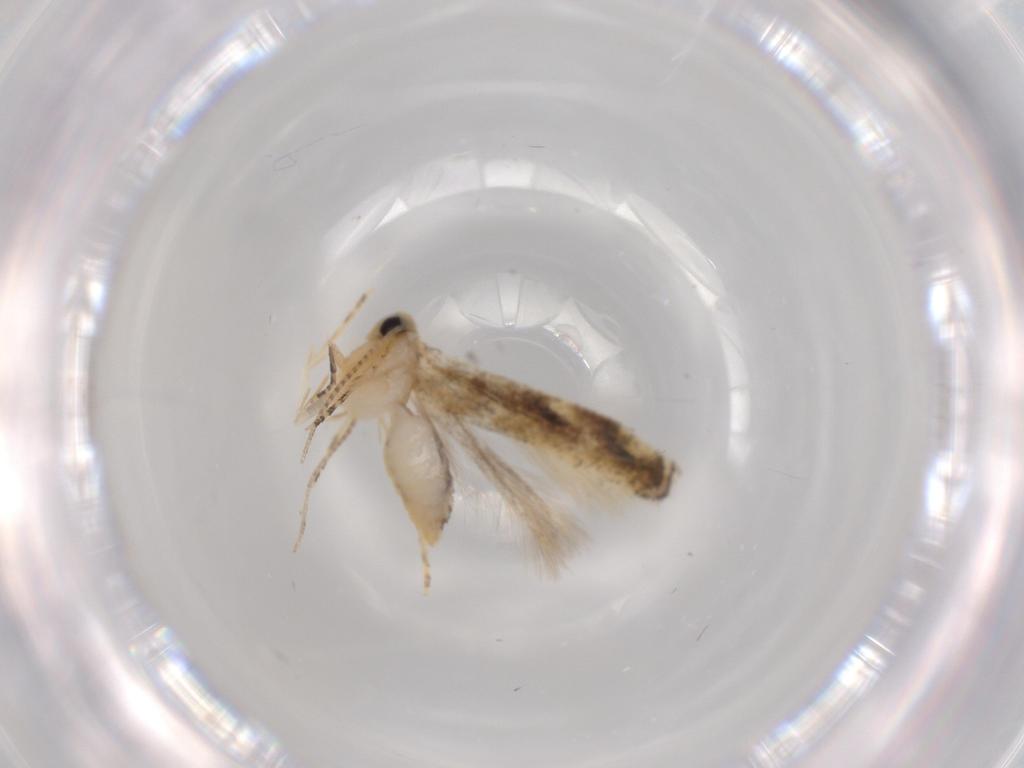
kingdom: Animalia
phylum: Arthropoda
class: Insecta
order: Lepidoptera
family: Bucculatricidae
